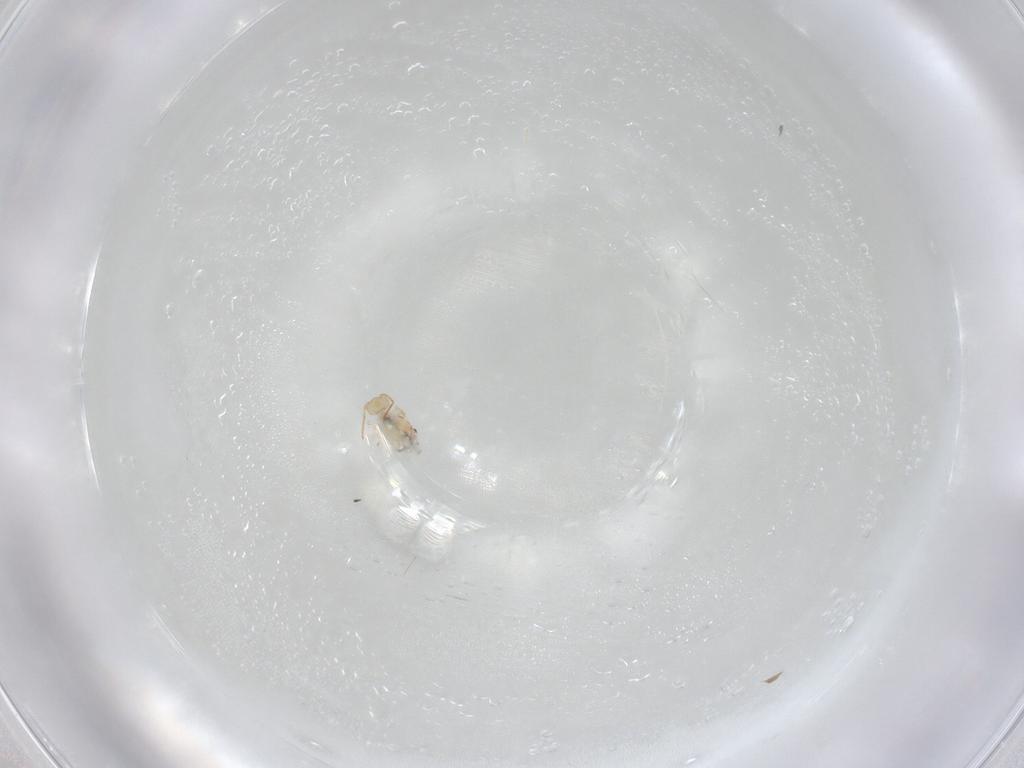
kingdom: Animalia
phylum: Arthropoda
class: Collembola
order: Symphypleona
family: Bourletiellidae
